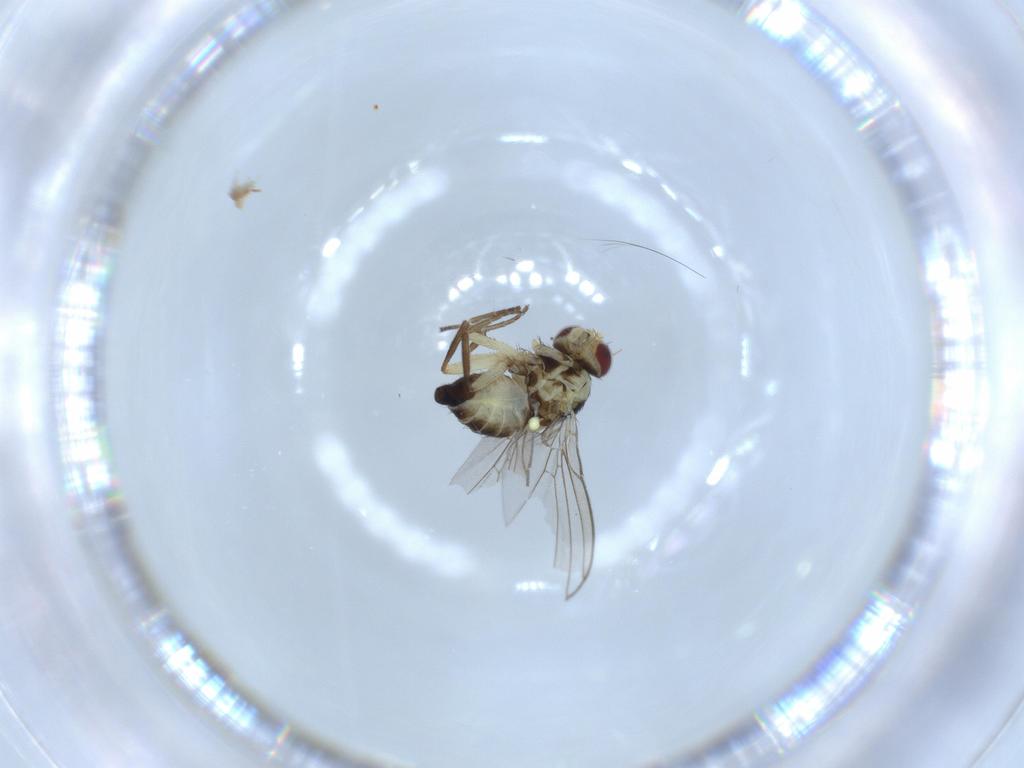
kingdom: Animalia
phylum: Arthropoda
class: Insecta
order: Diptera
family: Agromyzidae
